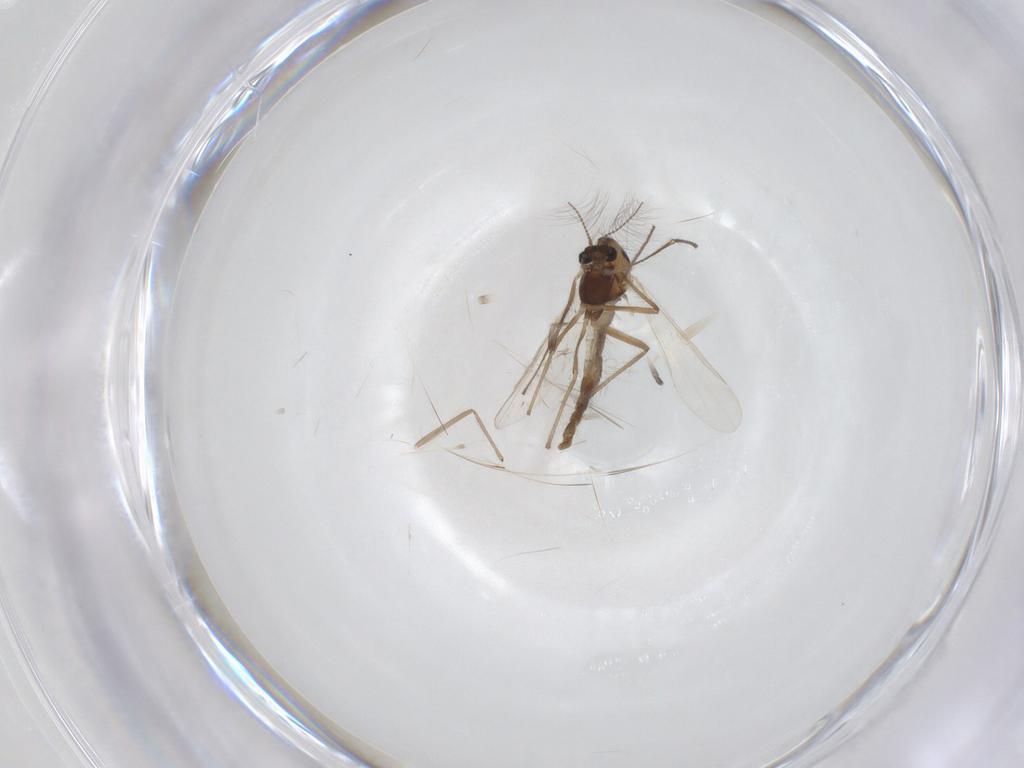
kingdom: Animalia
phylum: Arthropoda
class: Insecta
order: Diptera
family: Chironomidae
